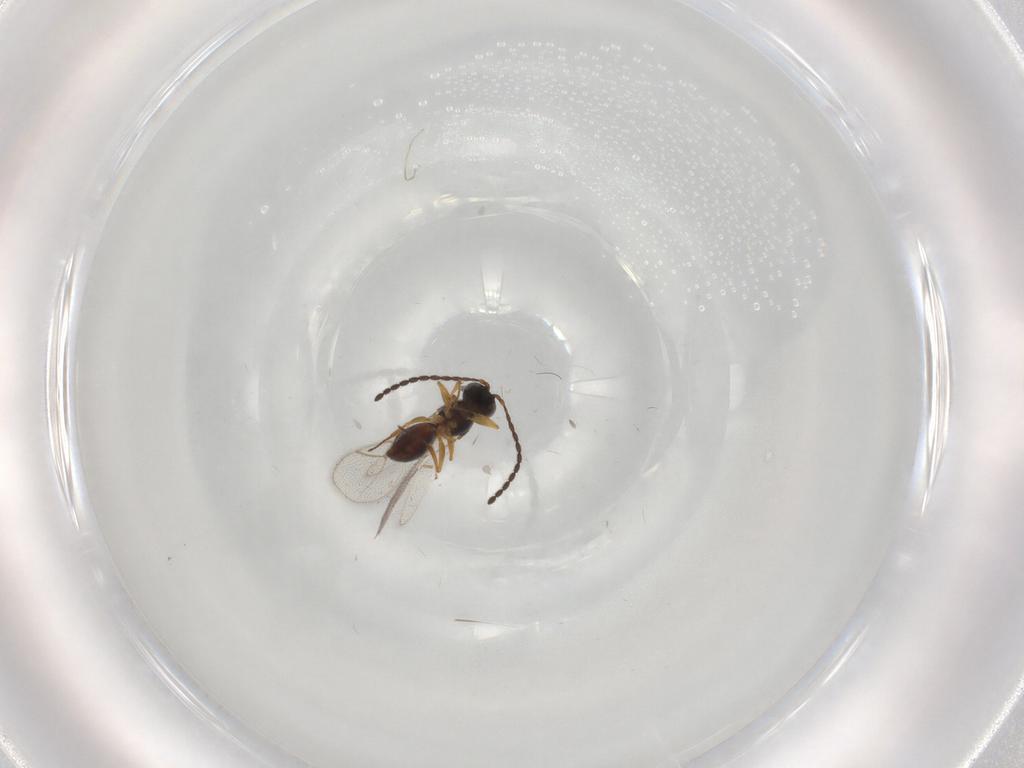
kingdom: Animalia
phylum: Arthropoda
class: Insecta
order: Hymenoptera
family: Figitidae
